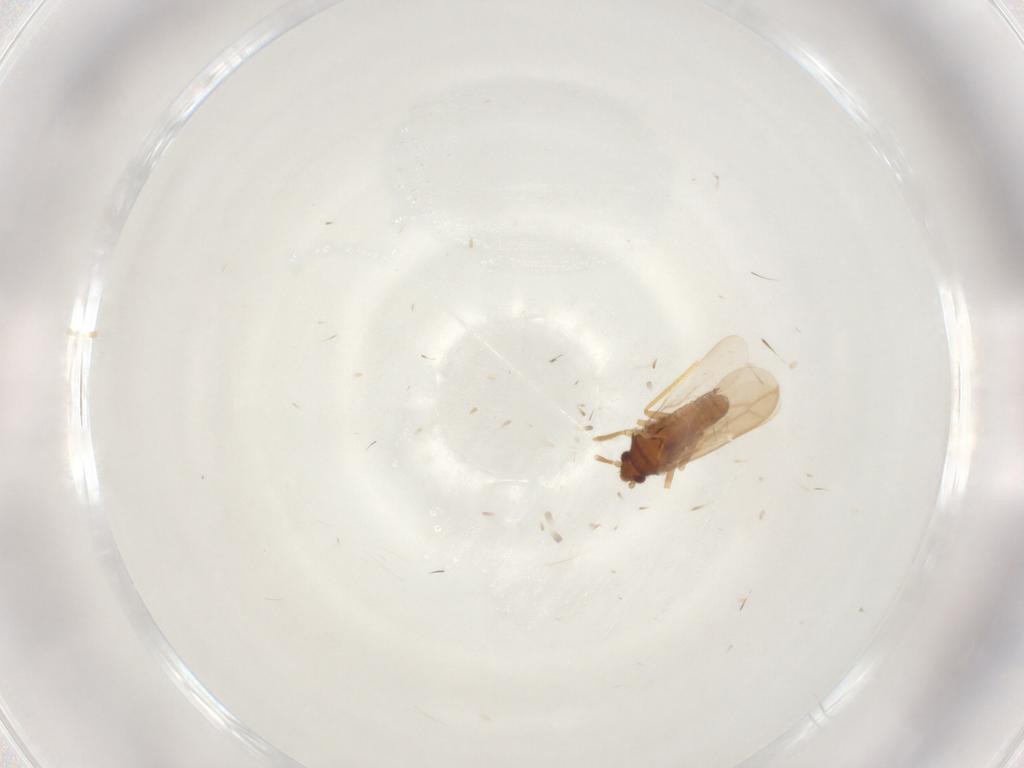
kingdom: Animalia
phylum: Arthropoda
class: Insecta
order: Hemiptera
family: Ceratocombidae
